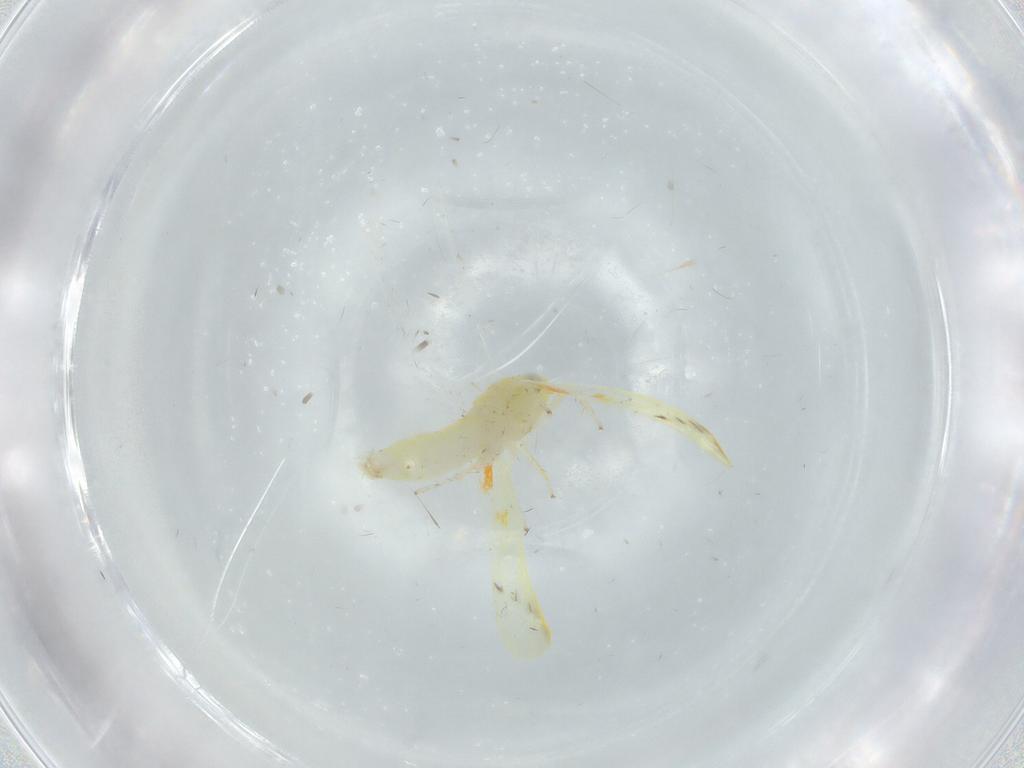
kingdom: Animalia
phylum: Arthropoda
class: Insecta
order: Hemiptera
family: Cicadellidae
